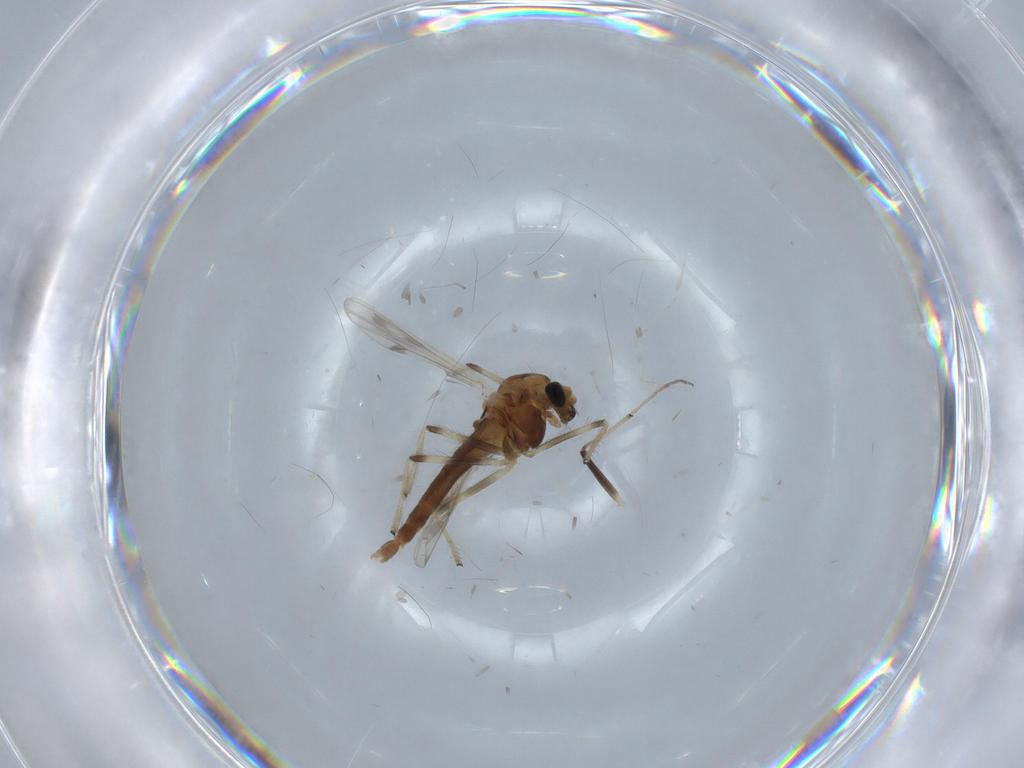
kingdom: Animalia
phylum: Arthropoda
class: Insecta
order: Diptera
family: Chironomidae
